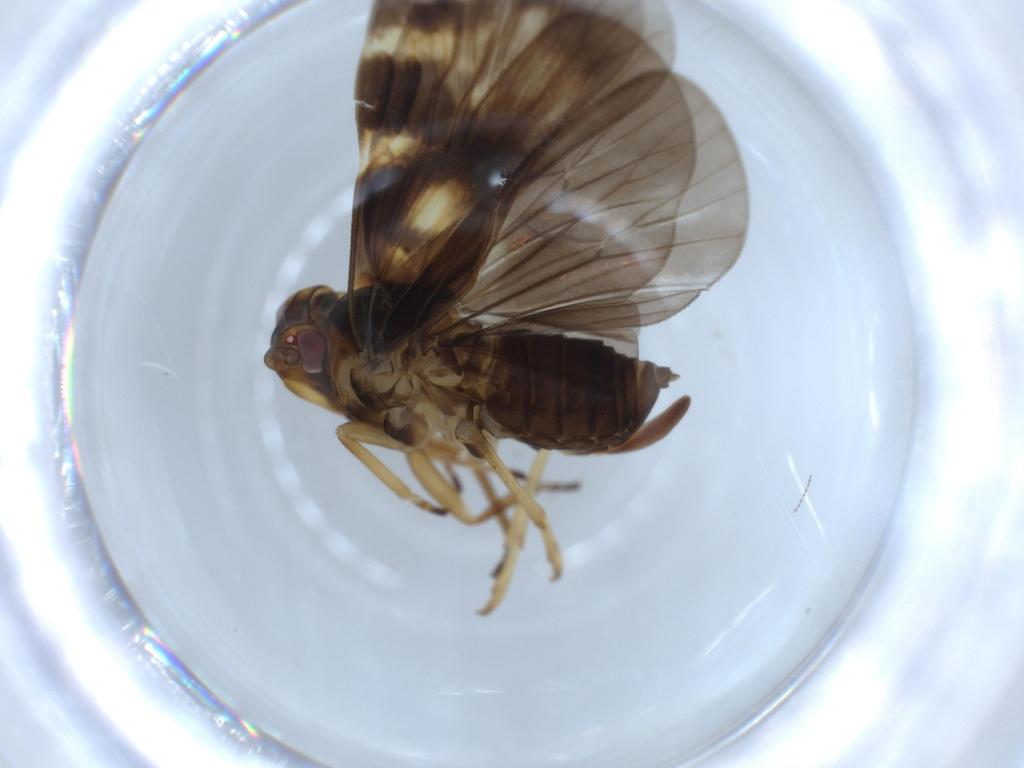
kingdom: Animalia
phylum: Arthropoda
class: Insecta
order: Hemiptera
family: Cixiidae
